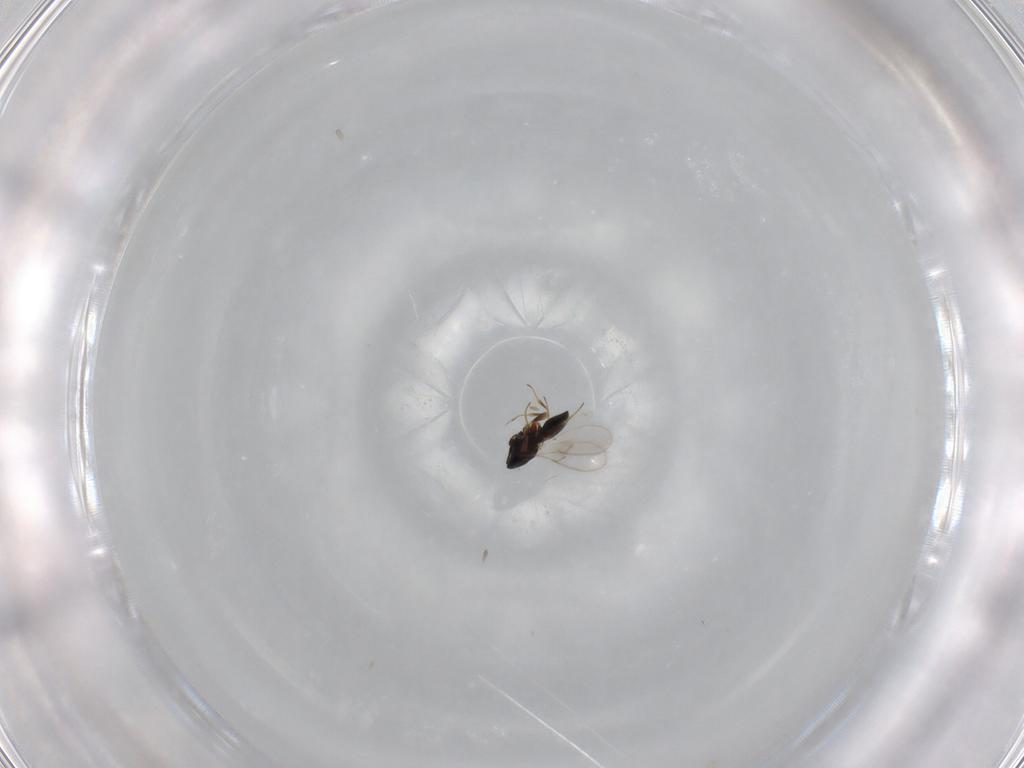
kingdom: Animalia
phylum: Arthropoda
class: Insecta
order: Hymenoptera
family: Scelionidae
